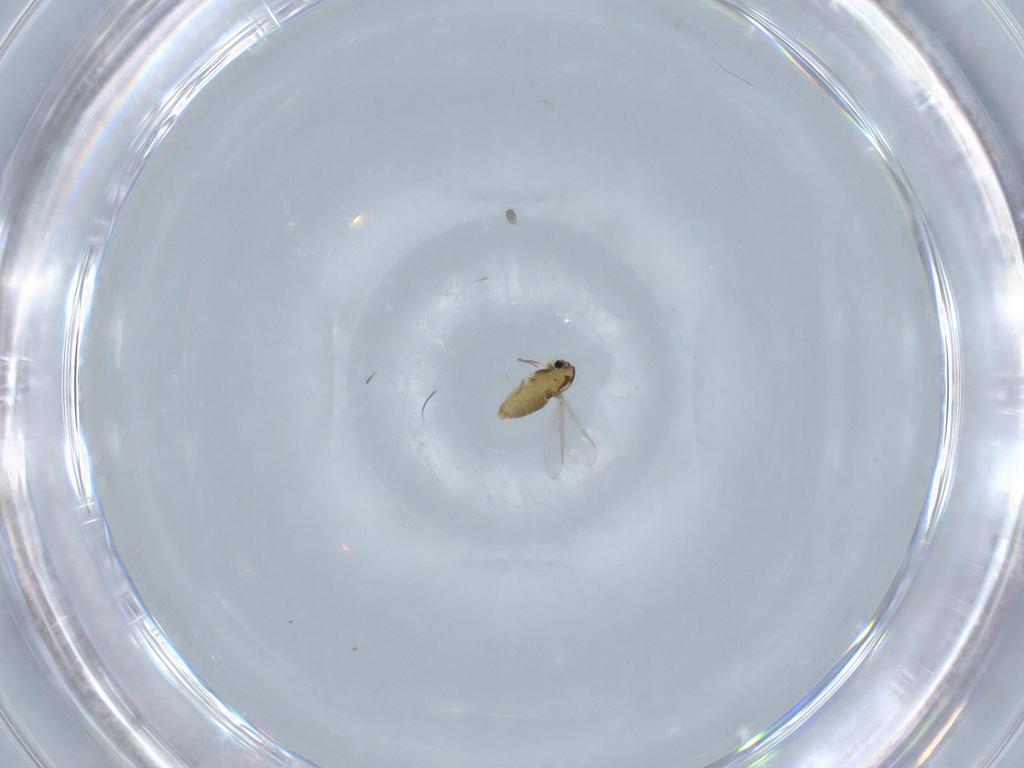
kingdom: Animalia
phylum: Arthropoda
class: Insecta
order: Diptera
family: Chironomidae
